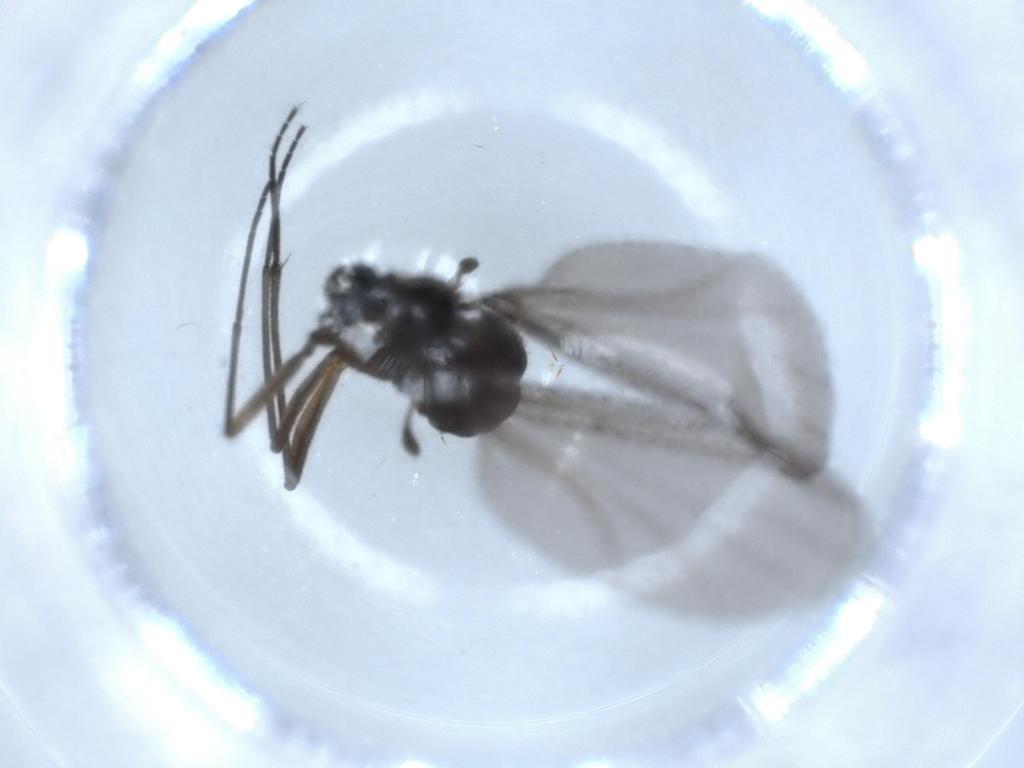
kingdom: Animalia
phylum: Arthropoda
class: Insecta
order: Diptera
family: Sciaridae
